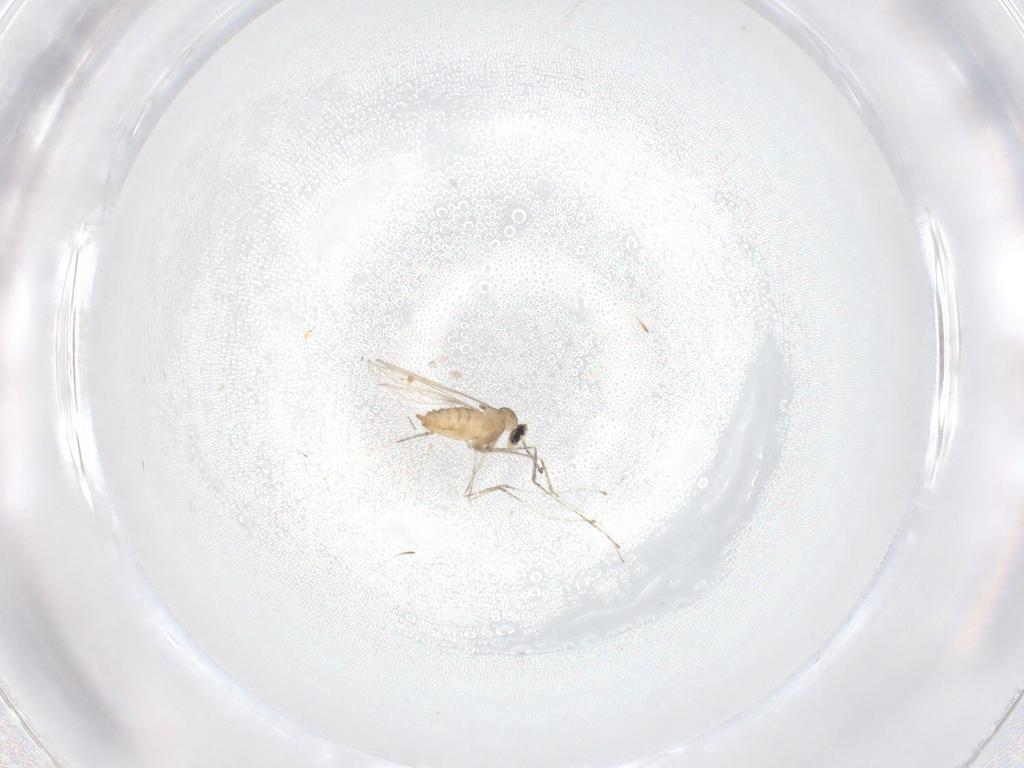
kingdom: Animalia
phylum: Arthropoda
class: Insecta
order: Diptera
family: Cecidomyiidae
